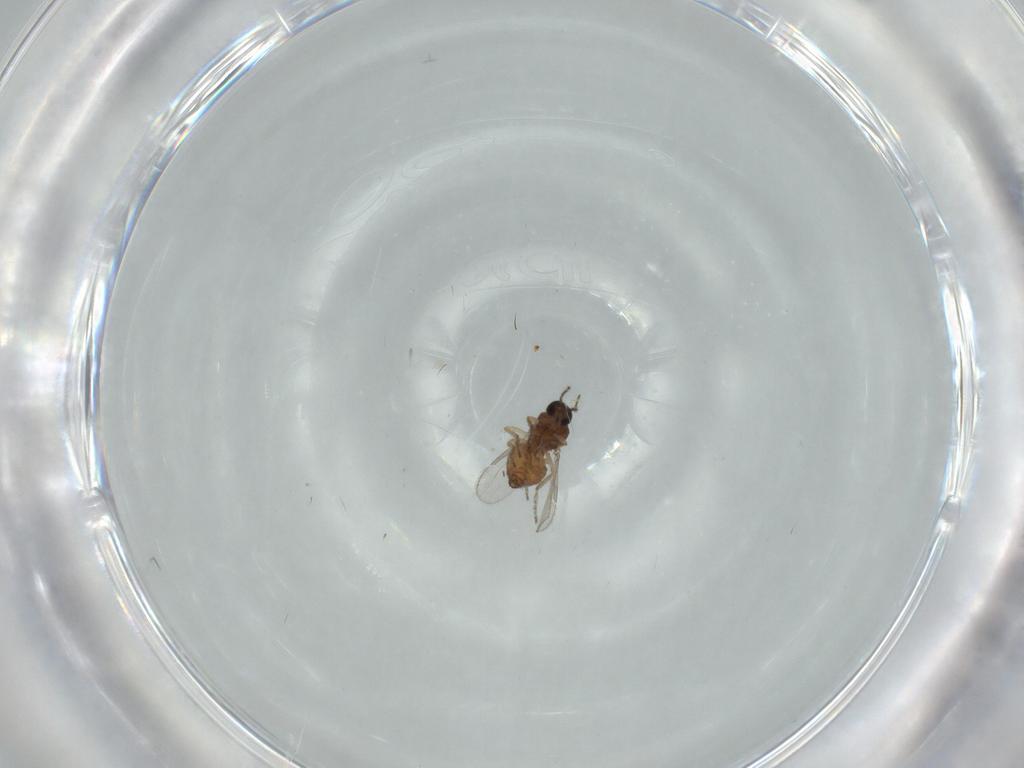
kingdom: Animalia
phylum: Arthropoda
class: Insecta
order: Diptera
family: Ceratopogonidae
